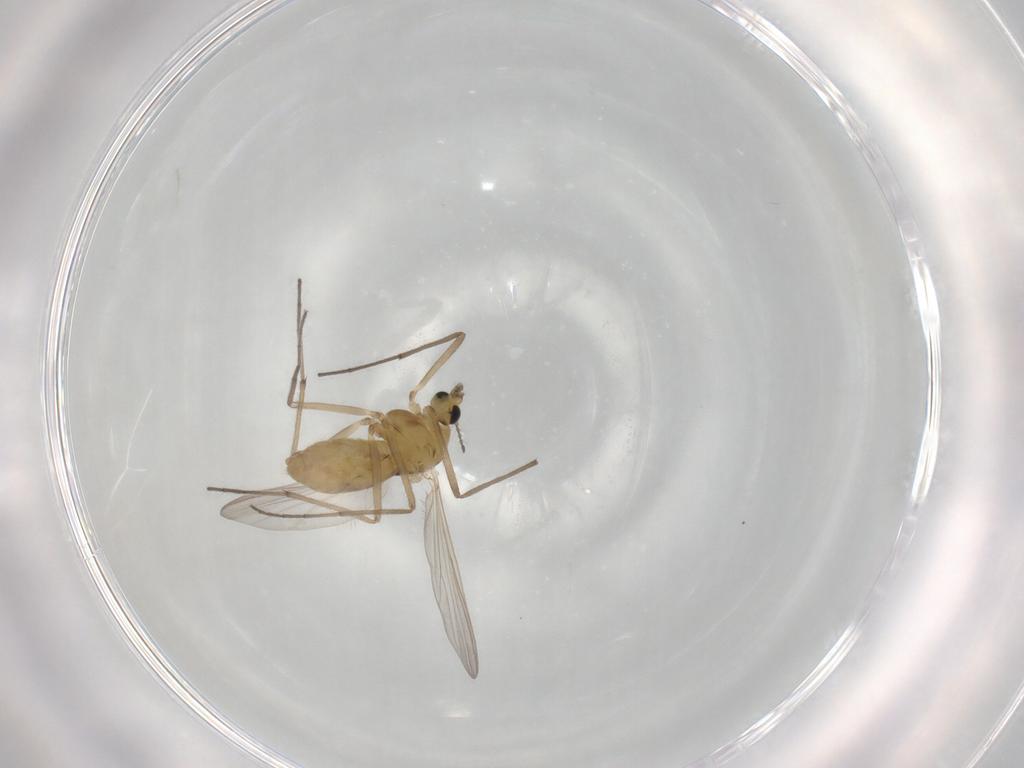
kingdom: Animalia
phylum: Arthropoda
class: Insecta
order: Diptera
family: Chironomidae
